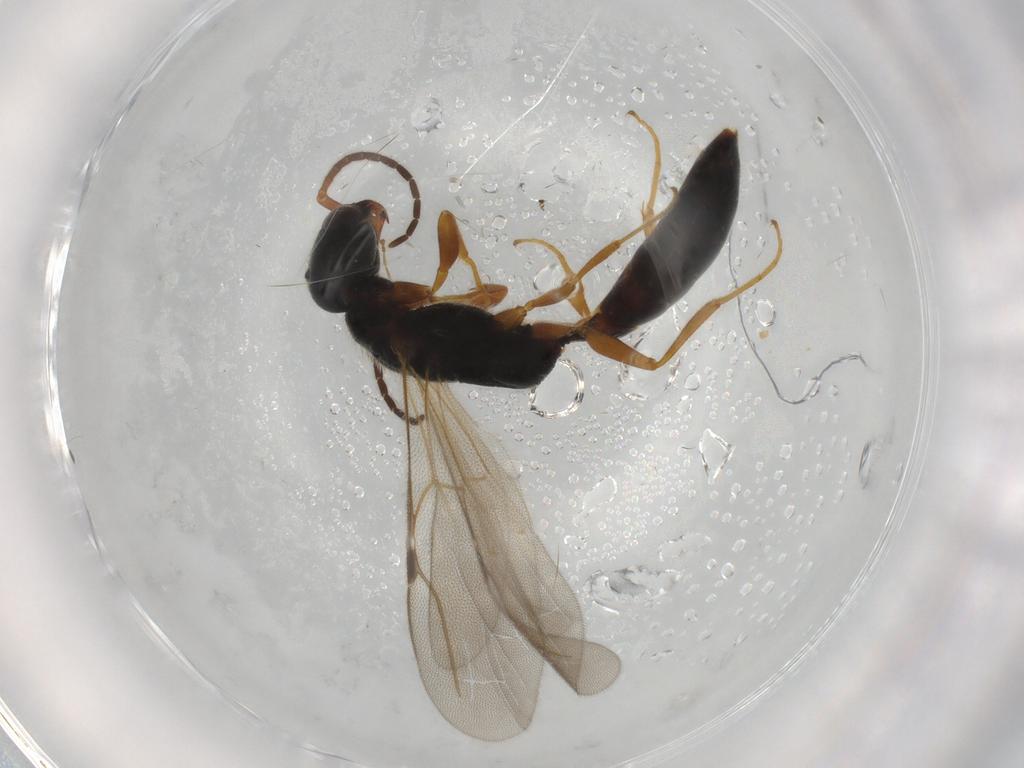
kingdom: Animalia
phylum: Arthropoda
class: Insecta
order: Hymenoptera
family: Bethylidae
